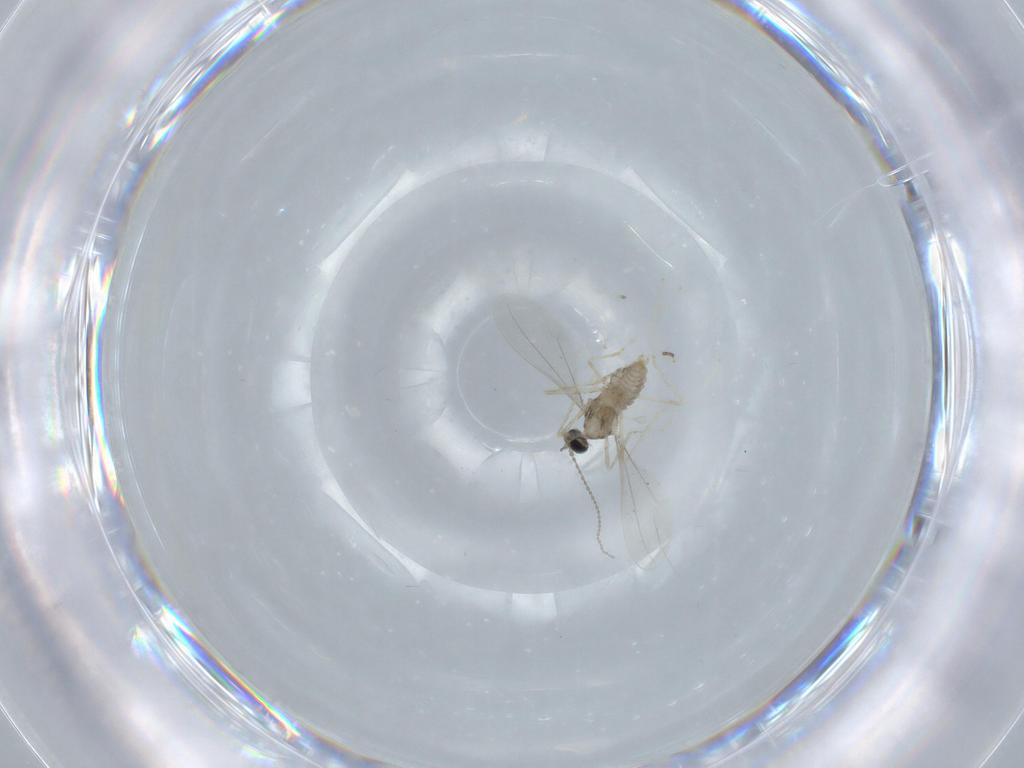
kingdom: Animalia
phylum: Arthropoda
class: Insecta
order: Diptera
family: Cecidomyiidae
